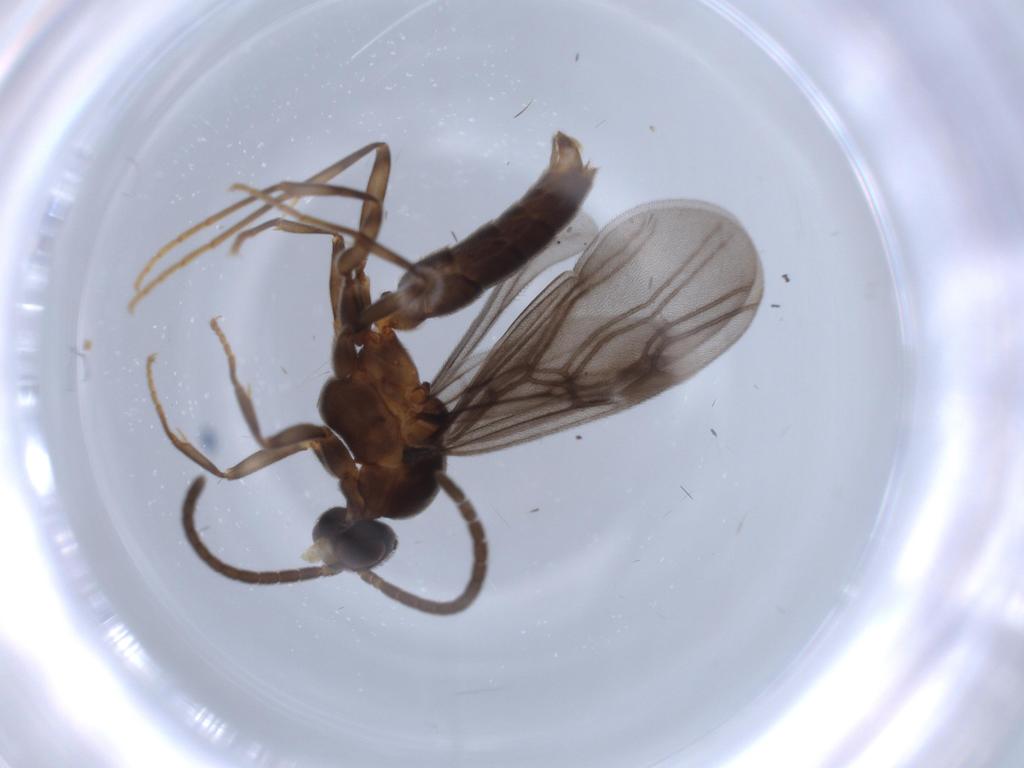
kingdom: Animalia
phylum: Arthropoda
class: Insecta
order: Hymenoptera
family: Formicidae
